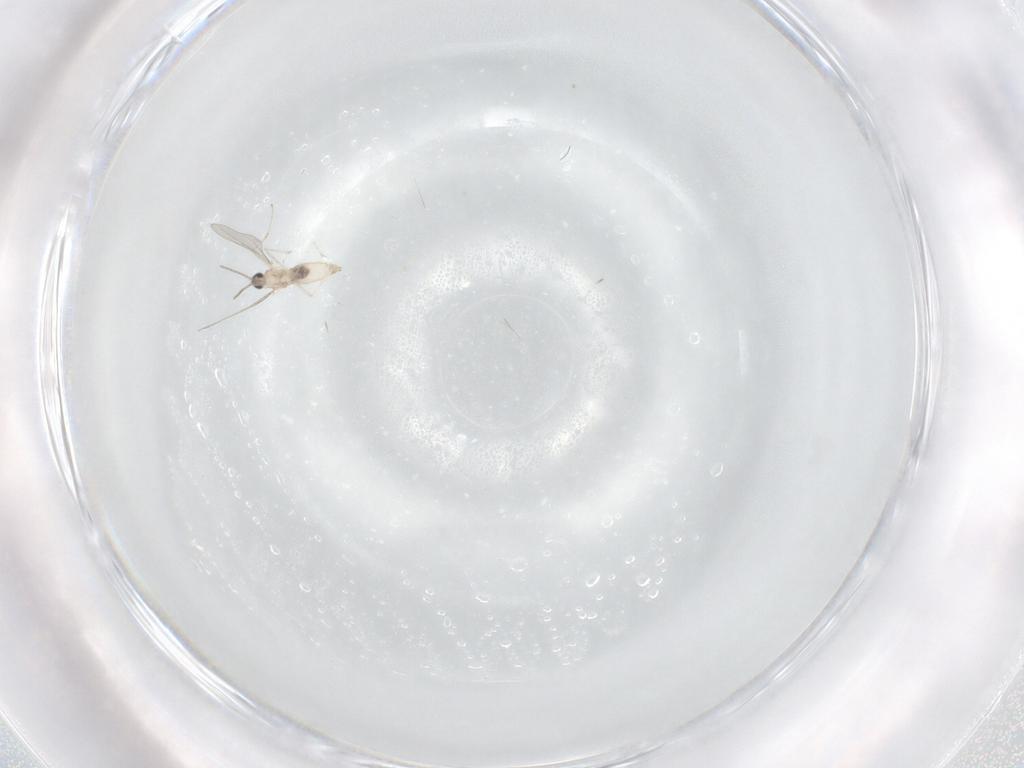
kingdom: Animalia
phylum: Arthropoda
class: Insecta
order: Diptera
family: Cecidomyiidae
